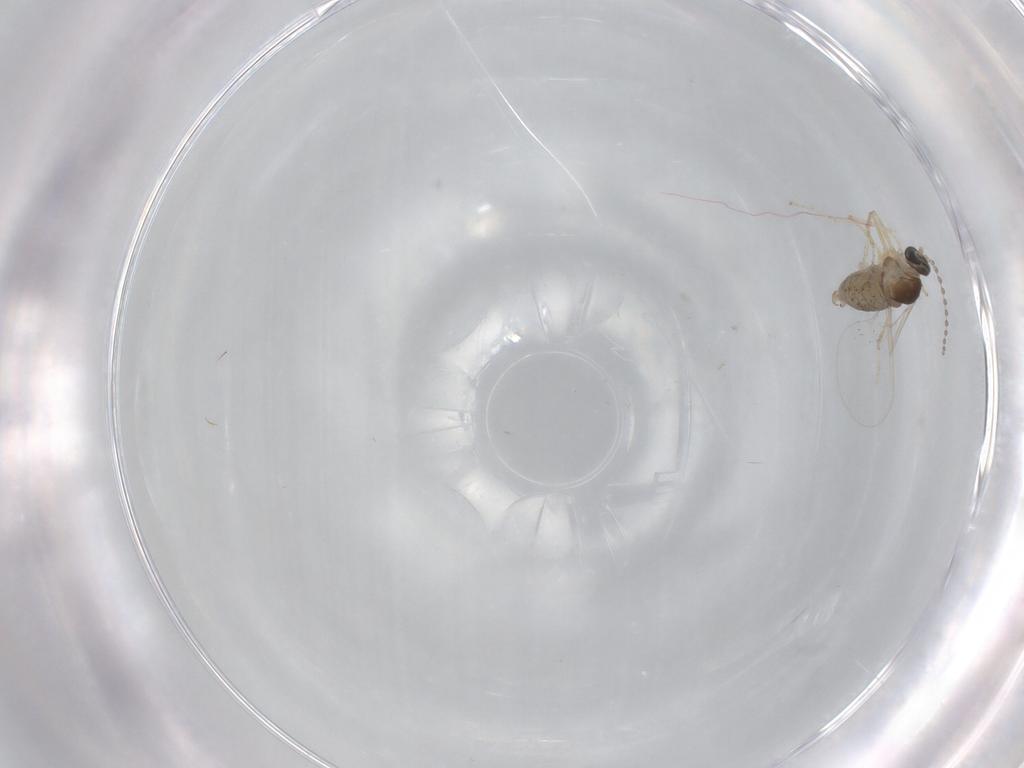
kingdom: Animalia
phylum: Arthropoda
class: Insecta
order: Diptera
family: Cecidomyiidae
